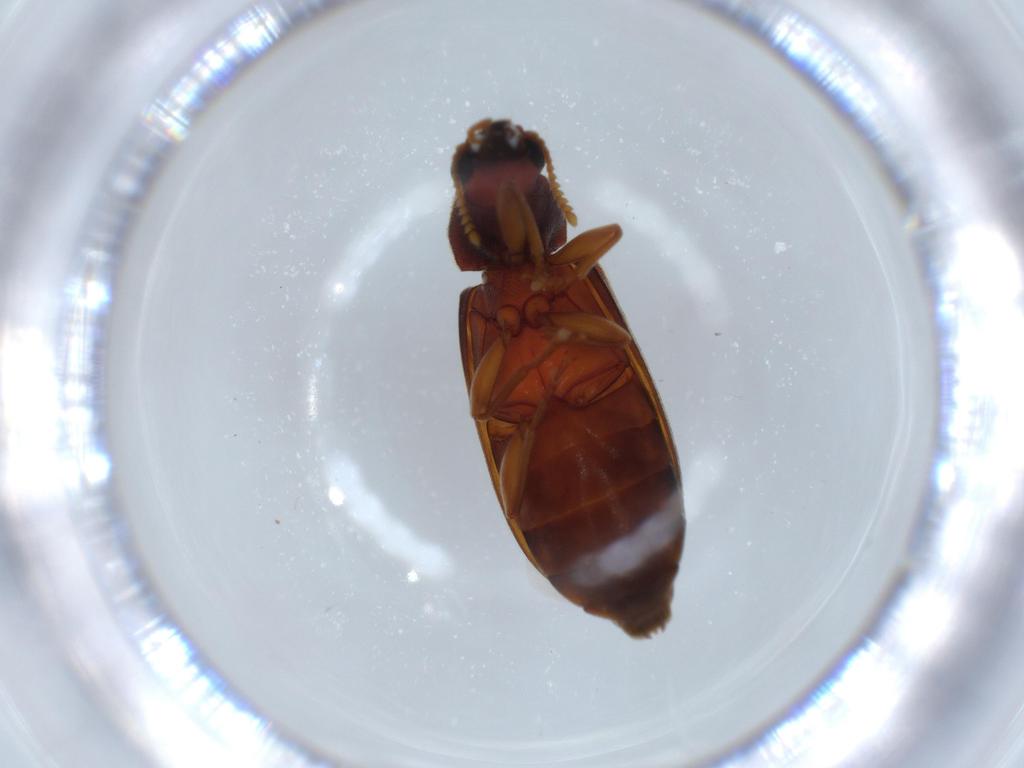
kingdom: Animalia
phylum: Arthropoda
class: Insecta
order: Coleoptera
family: Mycteridae
